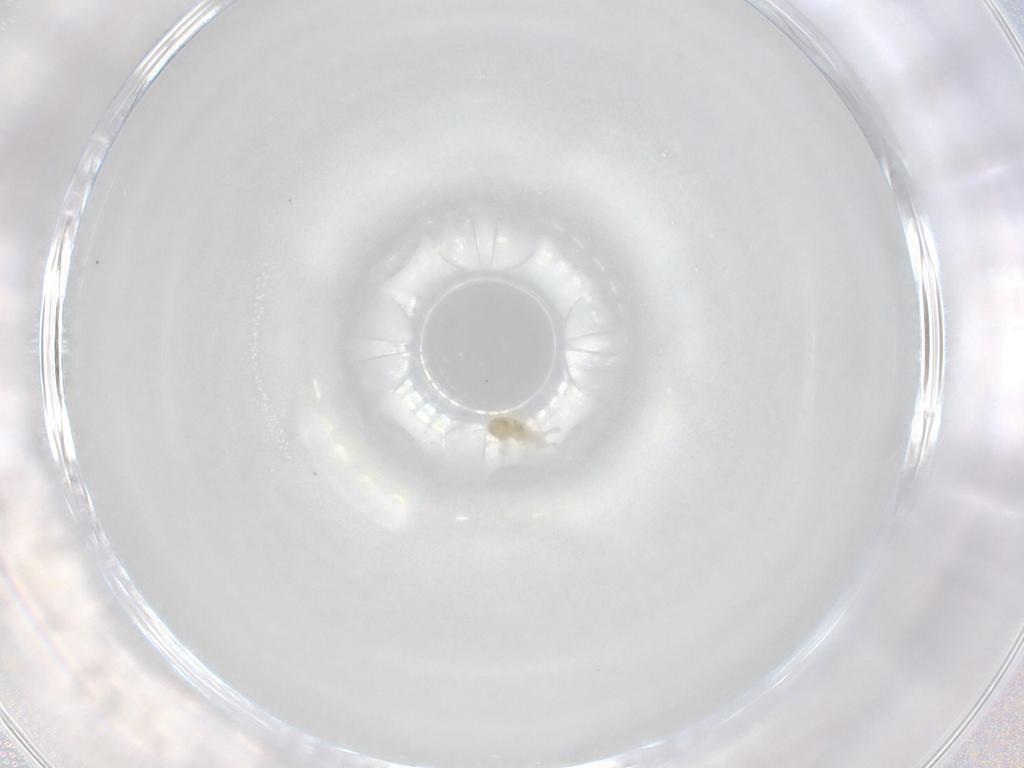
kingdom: Animalia
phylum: Arthropoda
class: Arachnida
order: Trombidiformes
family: Eupodidae
